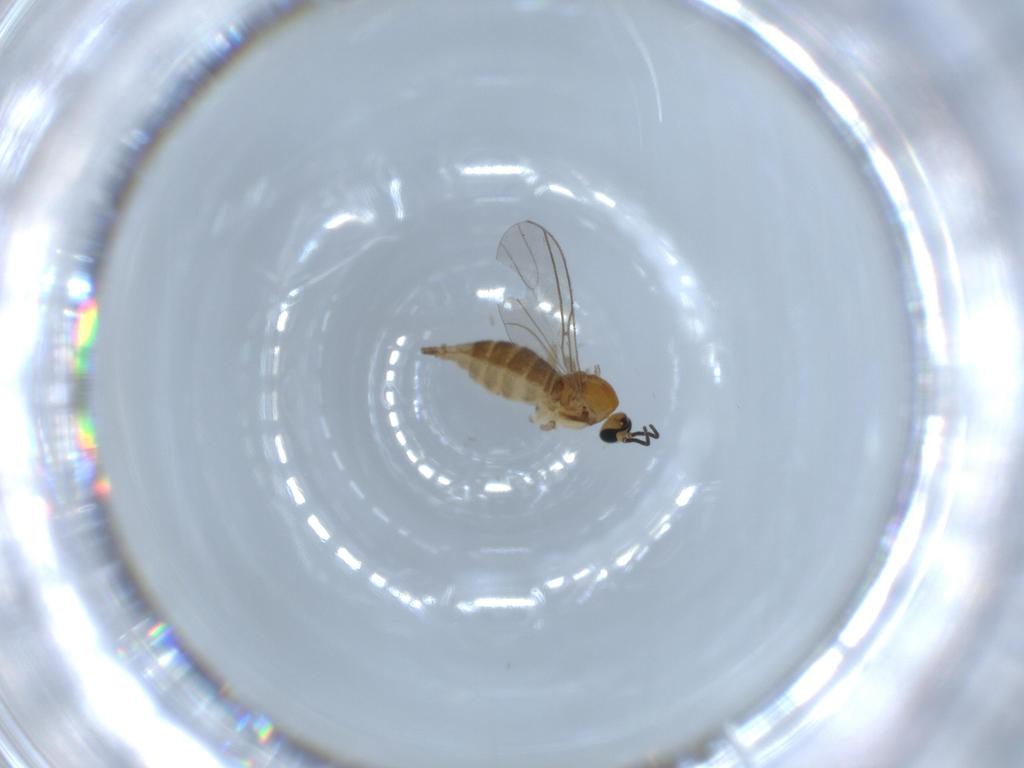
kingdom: Animalia
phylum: Arthropoda
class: Insecta
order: Diptera
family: Sciaridae
